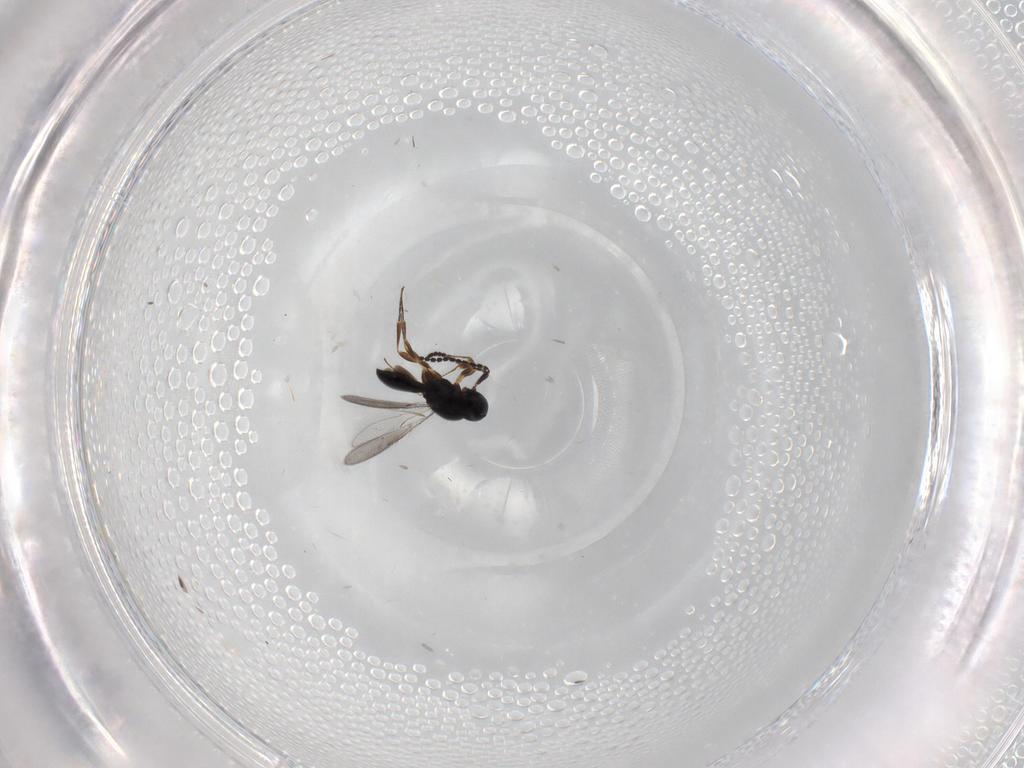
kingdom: Animalia
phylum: Arthropoda
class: Insecta
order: Hymenoptera
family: Scelionidae
